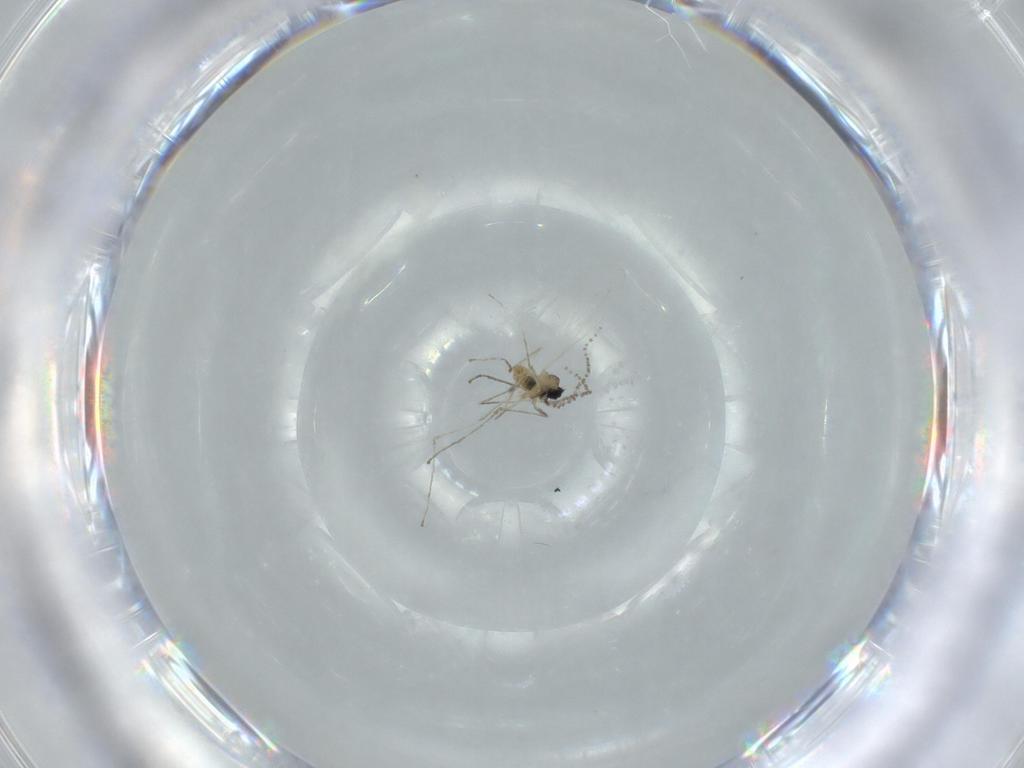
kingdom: Animalia
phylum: Arthropoda
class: Insecta
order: Diptera
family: Cecidomyiidae
